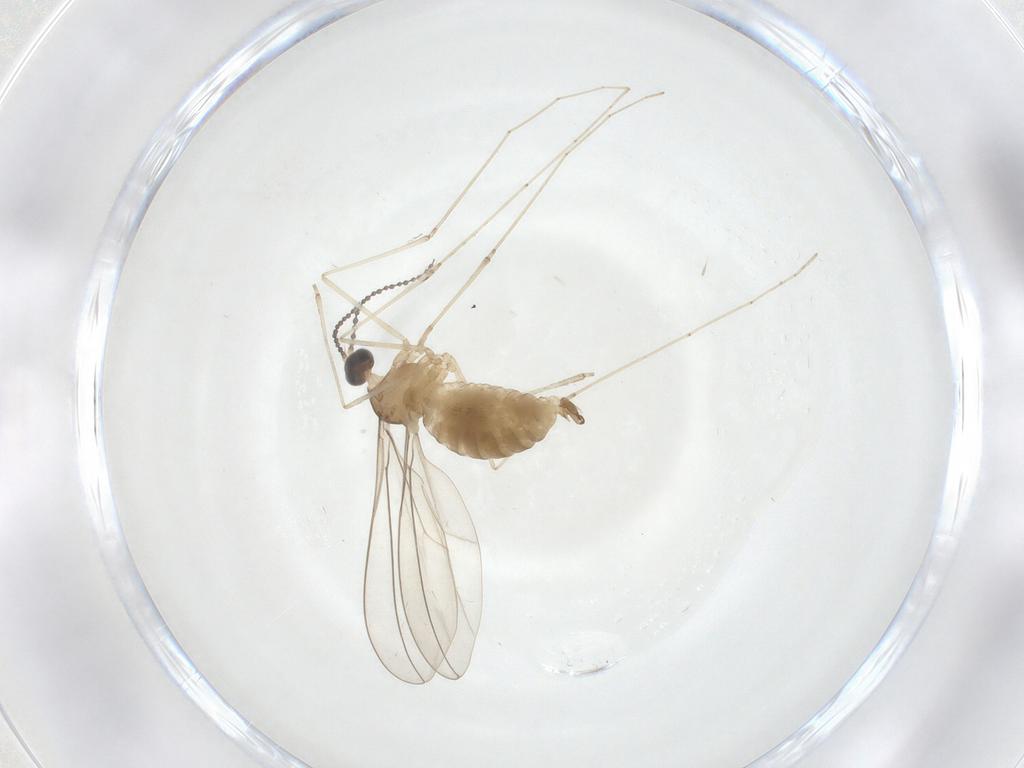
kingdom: Animalia
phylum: Arthropoda
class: Insecta
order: Diptera
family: Cecidomyiidae
